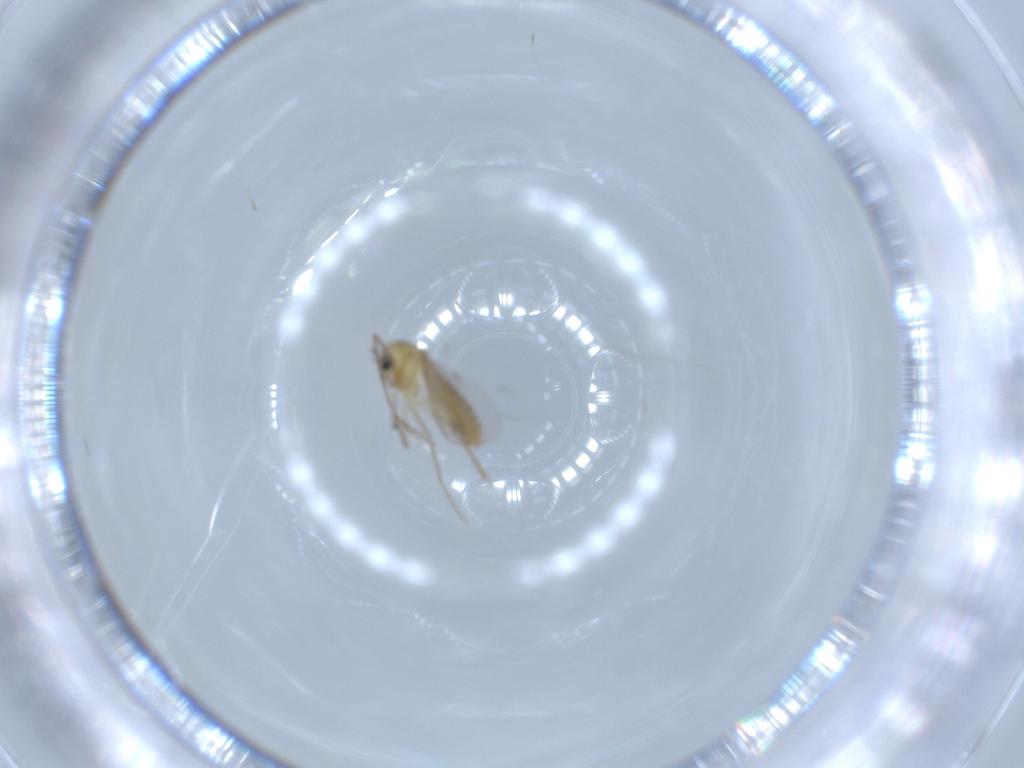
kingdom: Animalia
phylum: Arthropoda
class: Insecta
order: Diptera
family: Chironomidae
